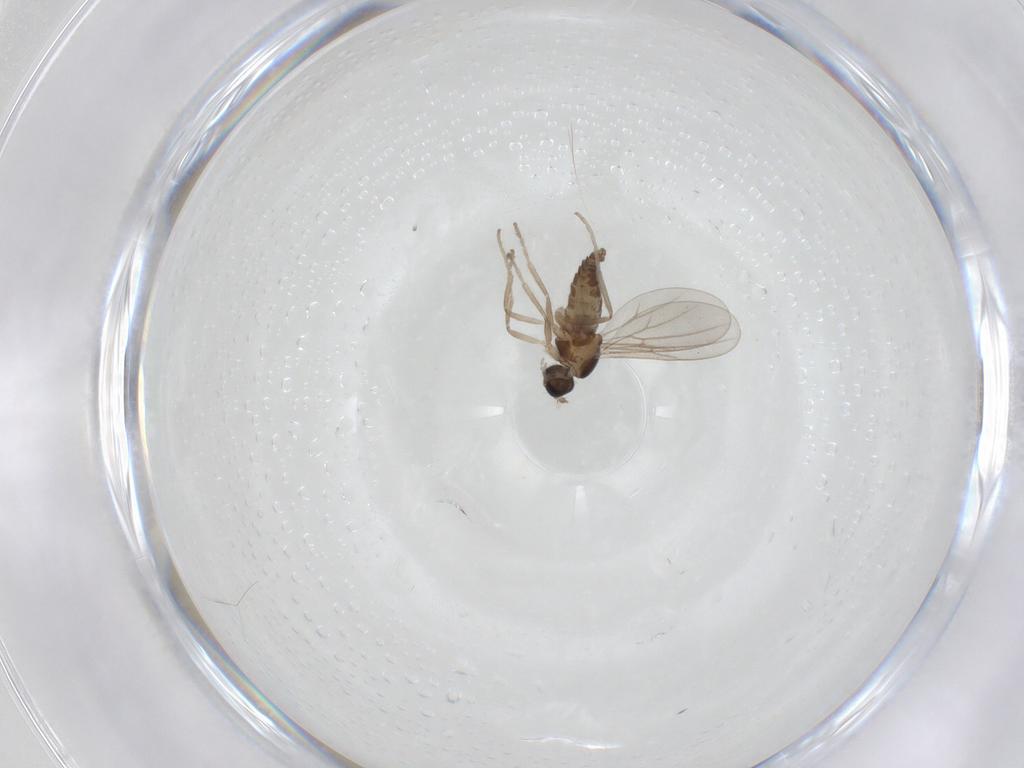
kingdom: Animalia
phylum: Arthropoda
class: Insecta
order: Diptera
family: Cecidomyiidae
